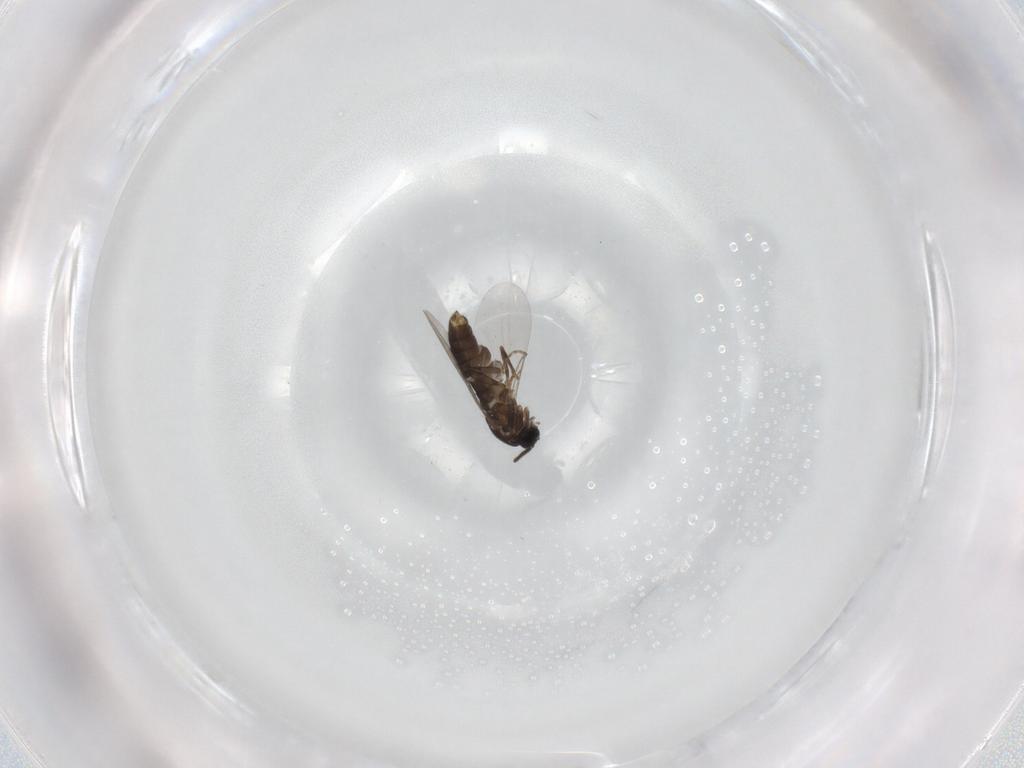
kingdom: Animalia
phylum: Arthropoda
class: Insecta
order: Diptera
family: Scatopsidae
